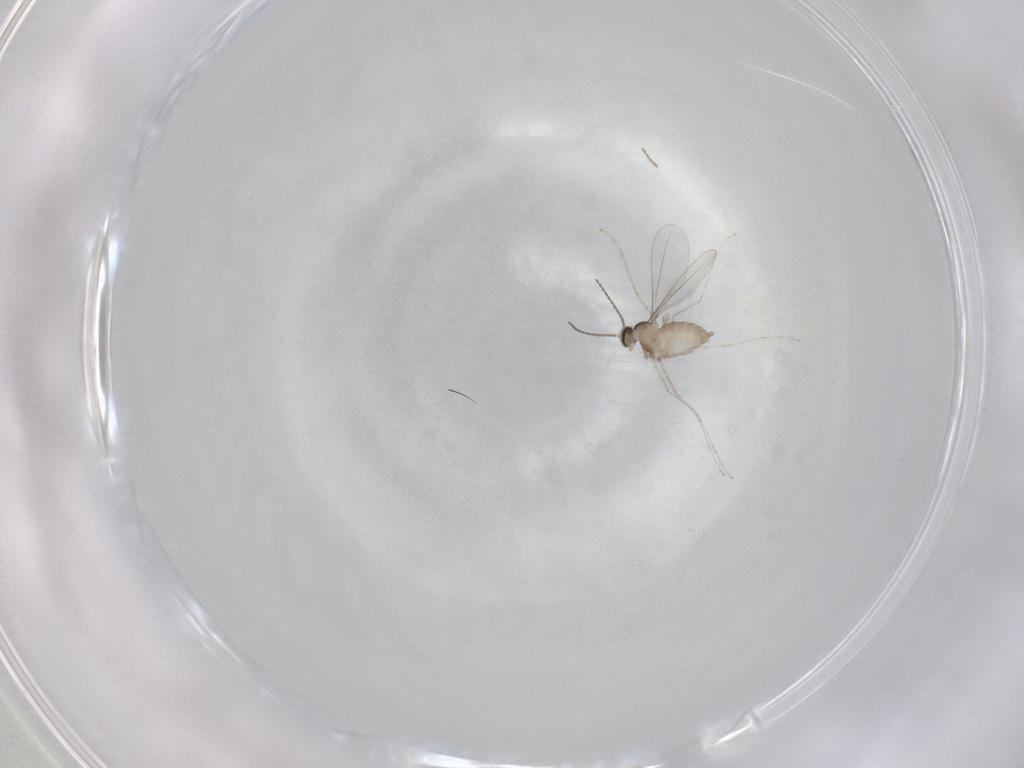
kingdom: Animalia
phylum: Arthropoda
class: Insecta
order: Diptera
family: Cecidomyiidae
